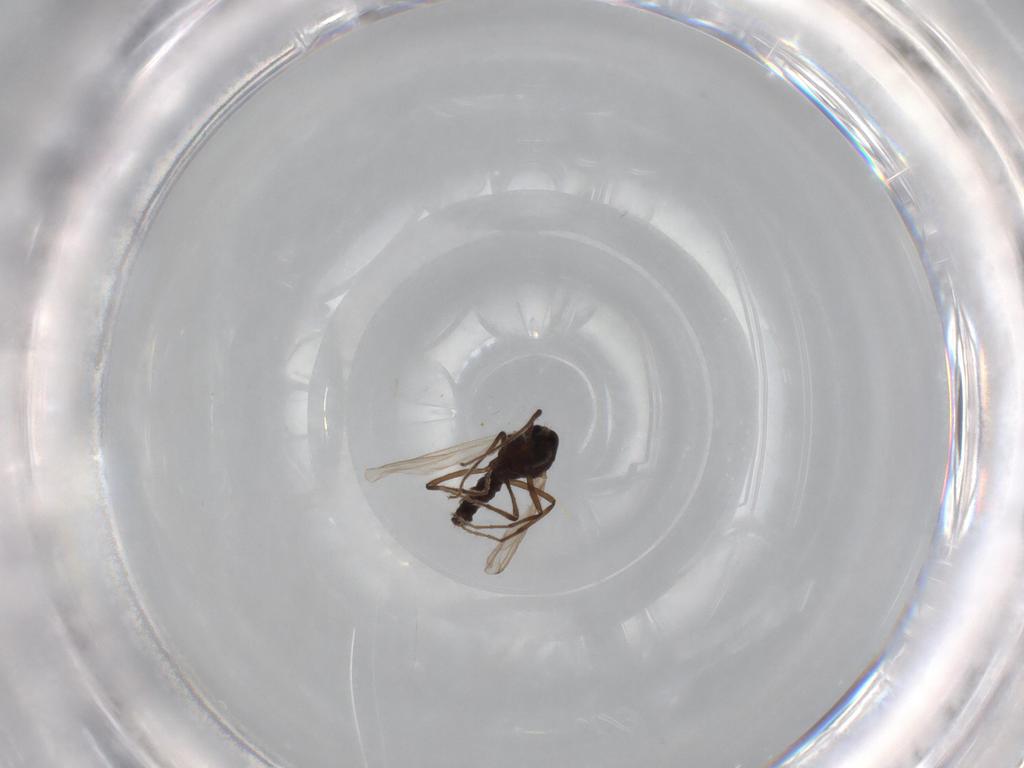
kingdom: Animalia
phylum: Arthropoda
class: Insecta
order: Diptera
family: Chironomidae
